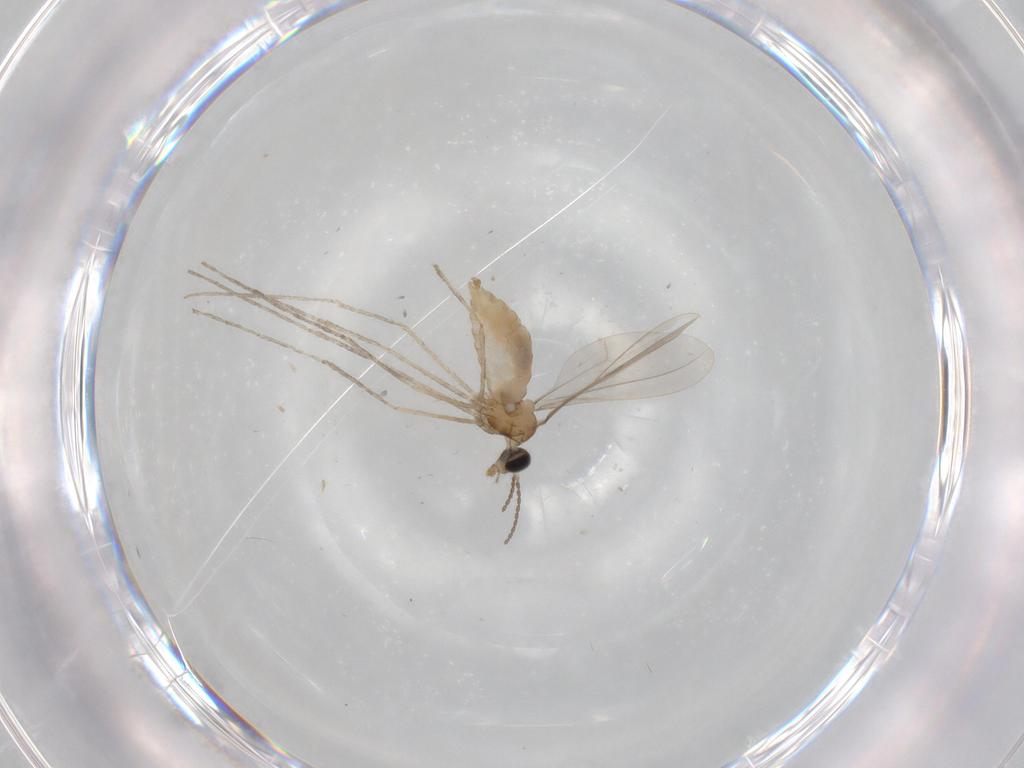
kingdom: Animalia
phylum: Arthropoda
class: Insecta
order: Diptera
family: Cecidomyiidae
